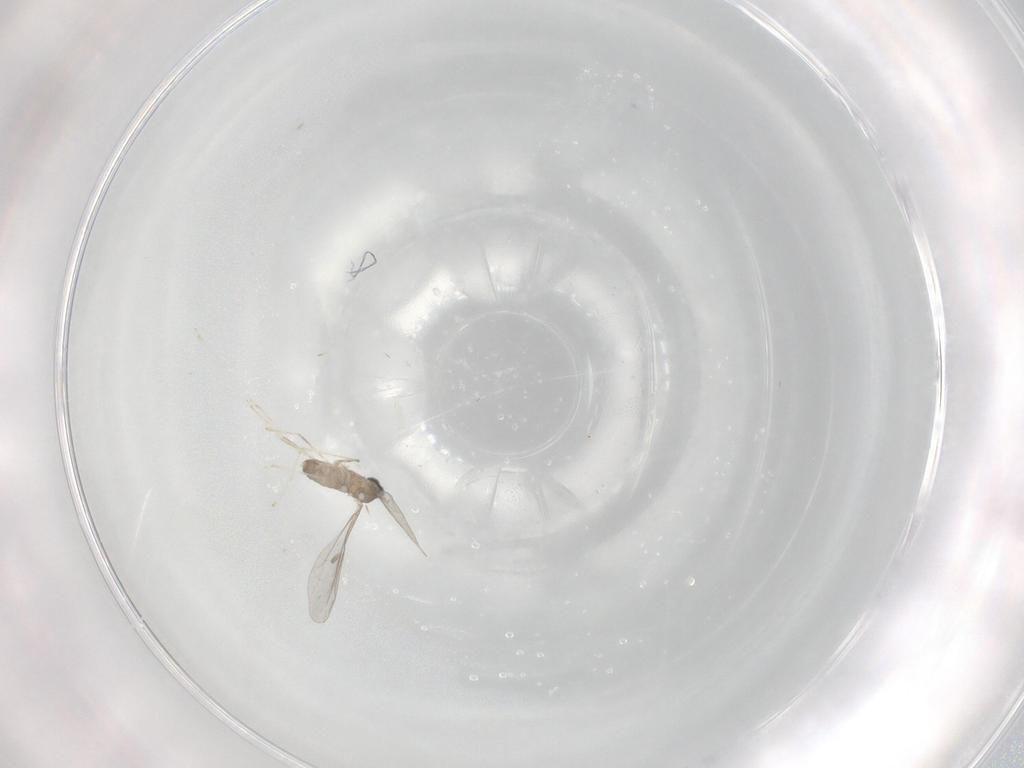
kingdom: Animalia
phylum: Arthropoda
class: Insecta
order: Diptera
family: Cecidomyiidae
